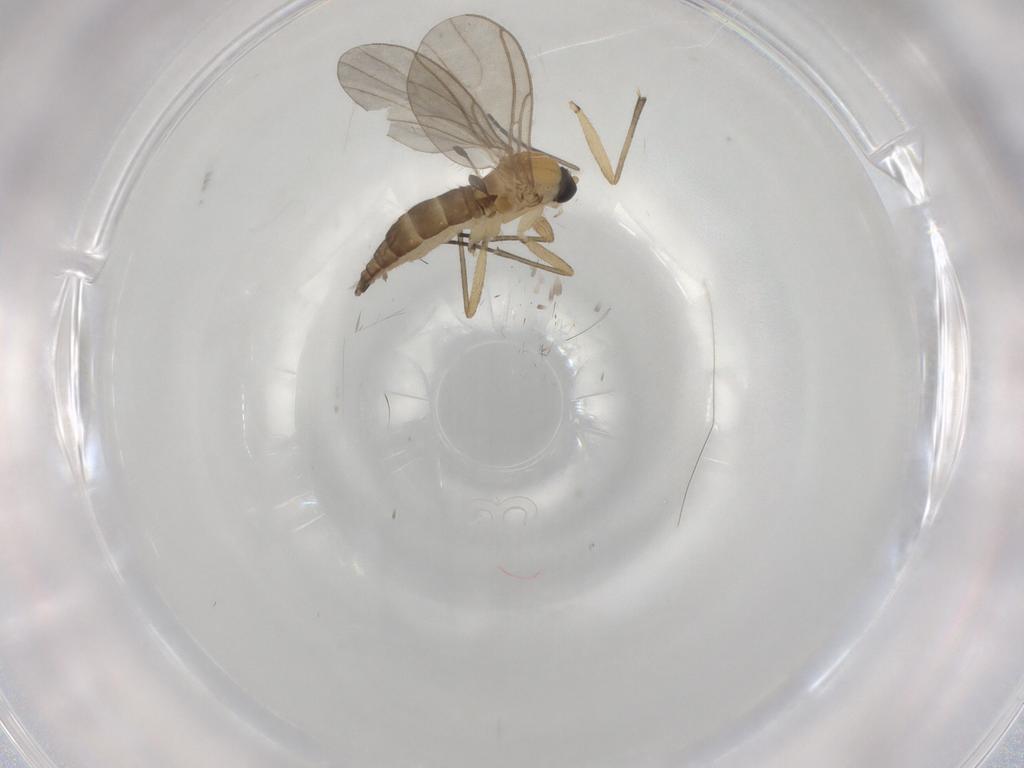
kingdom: Animalia
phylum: Arthropoda
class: Insecta
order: Diptera
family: Sciaridae
